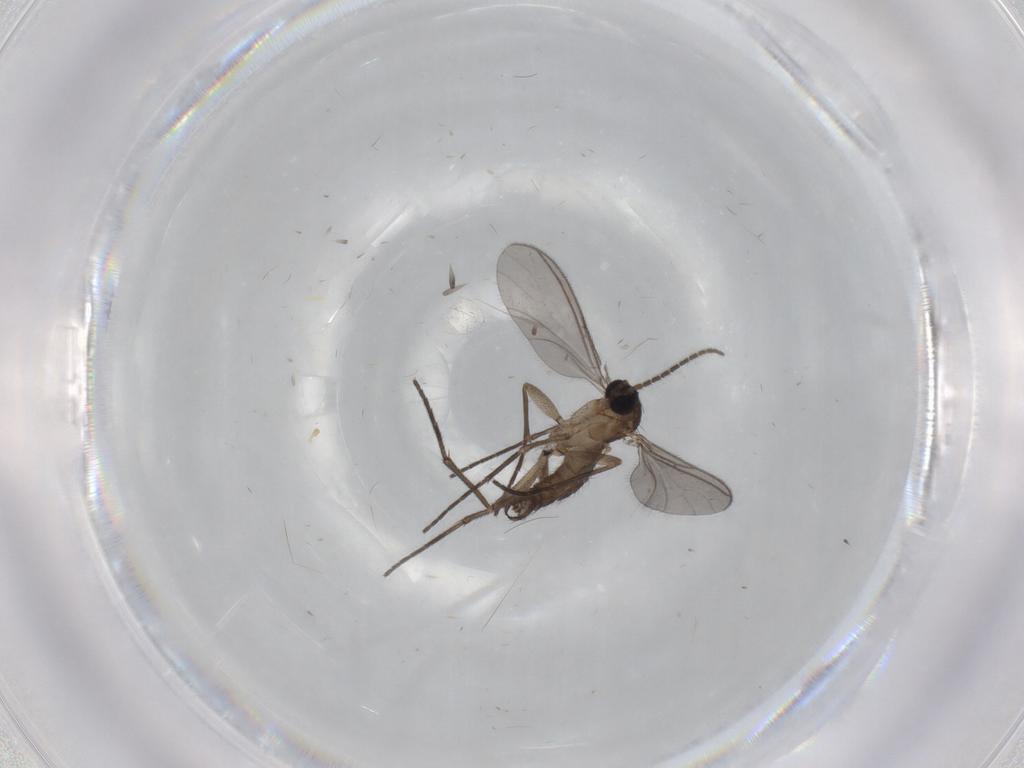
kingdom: Animalia
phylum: Arthropoda
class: Insecta
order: Diptera
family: Sciaridae
